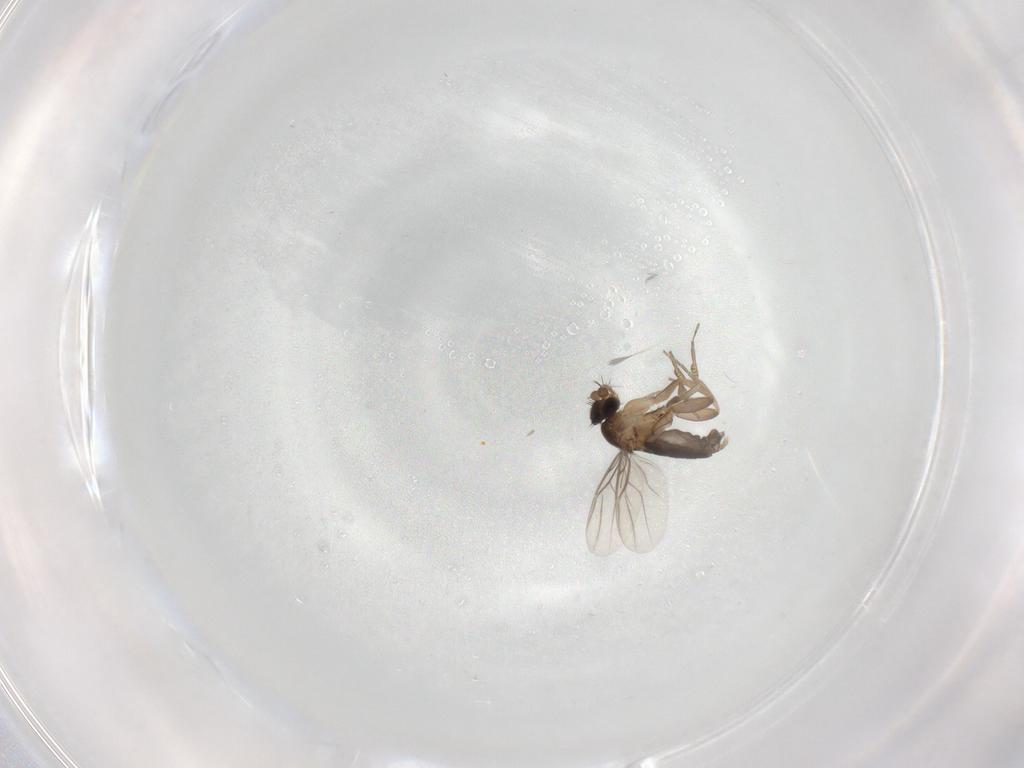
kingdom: Animalia
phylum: Arthropoda
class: Insecta
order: Diptera
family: Phoridae
